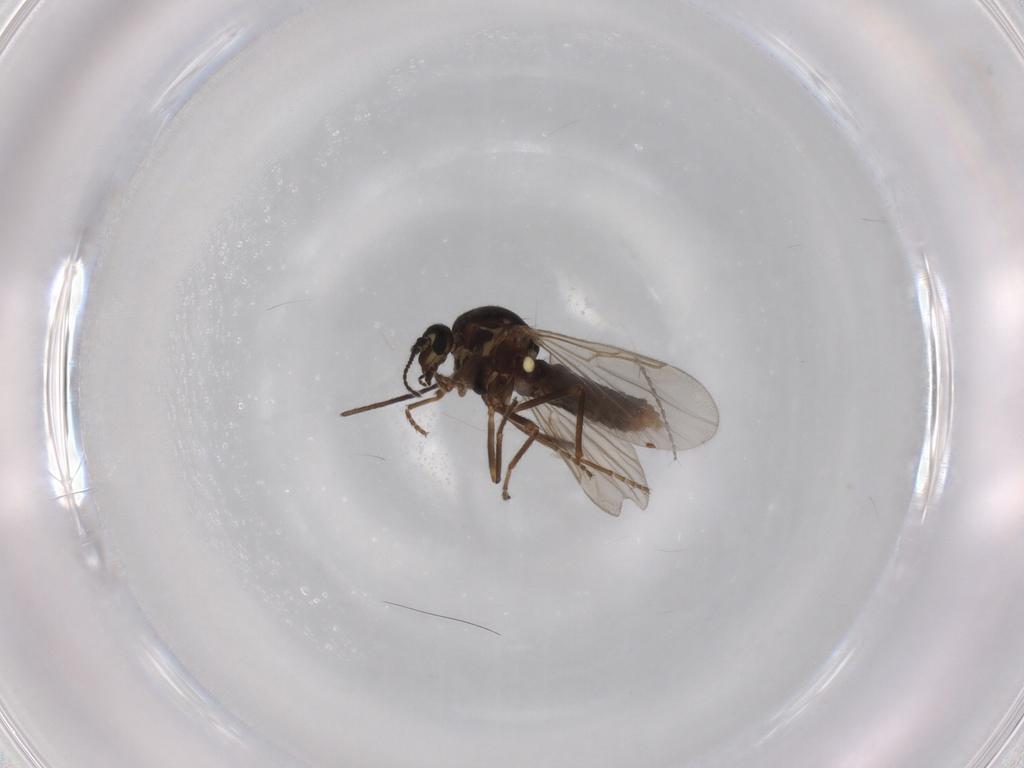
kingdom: Animalia
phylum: Arthropoda
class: Insecta
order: Diptera
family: Ceratopogonidae
